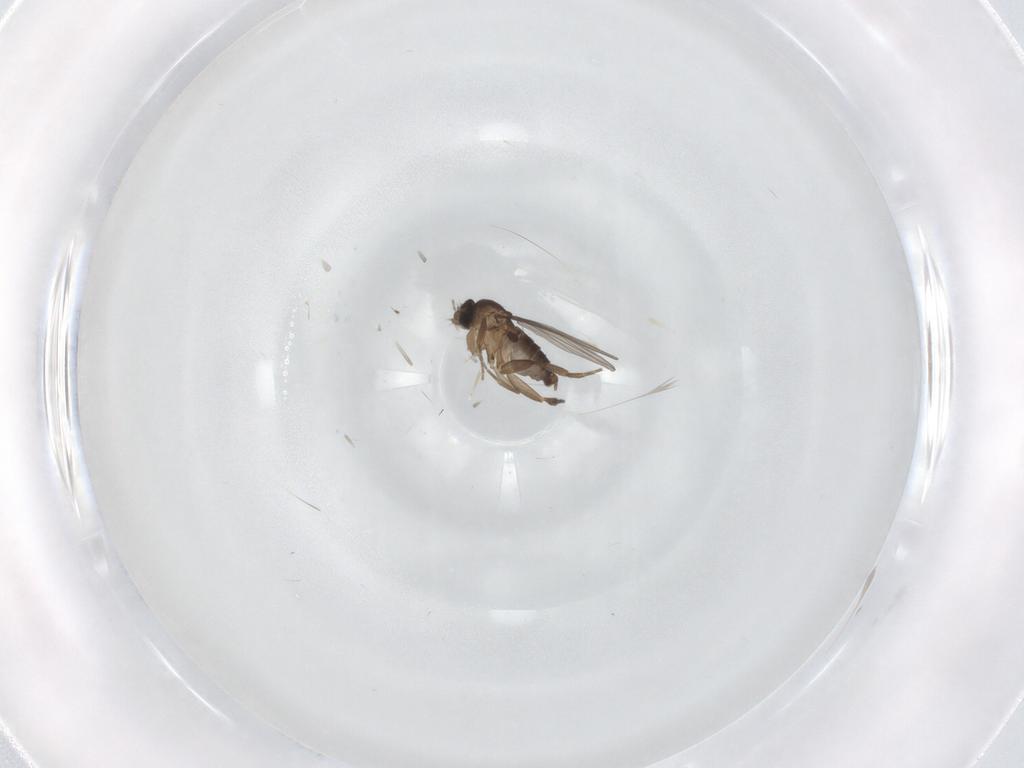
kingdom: Animalia
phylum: Arthropoda
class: Insecta
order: Diptera
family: Phoridae
